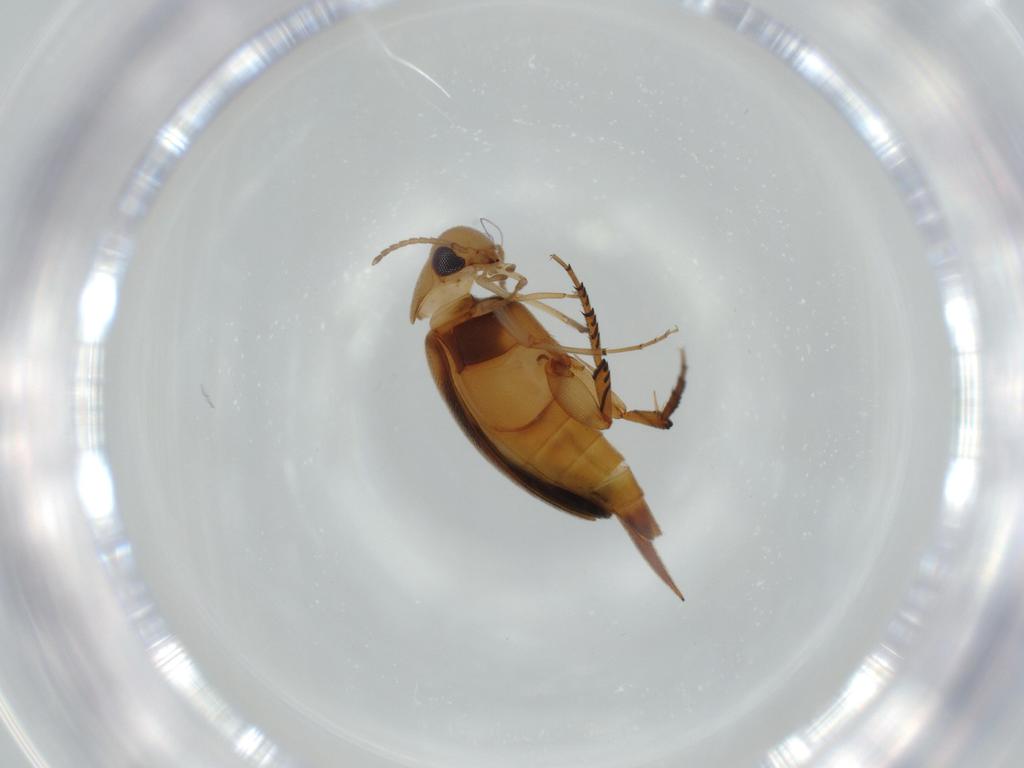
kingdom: Animalia
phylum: Arthropoda
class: Insecta
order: Coleoptera
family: Mordellidae
